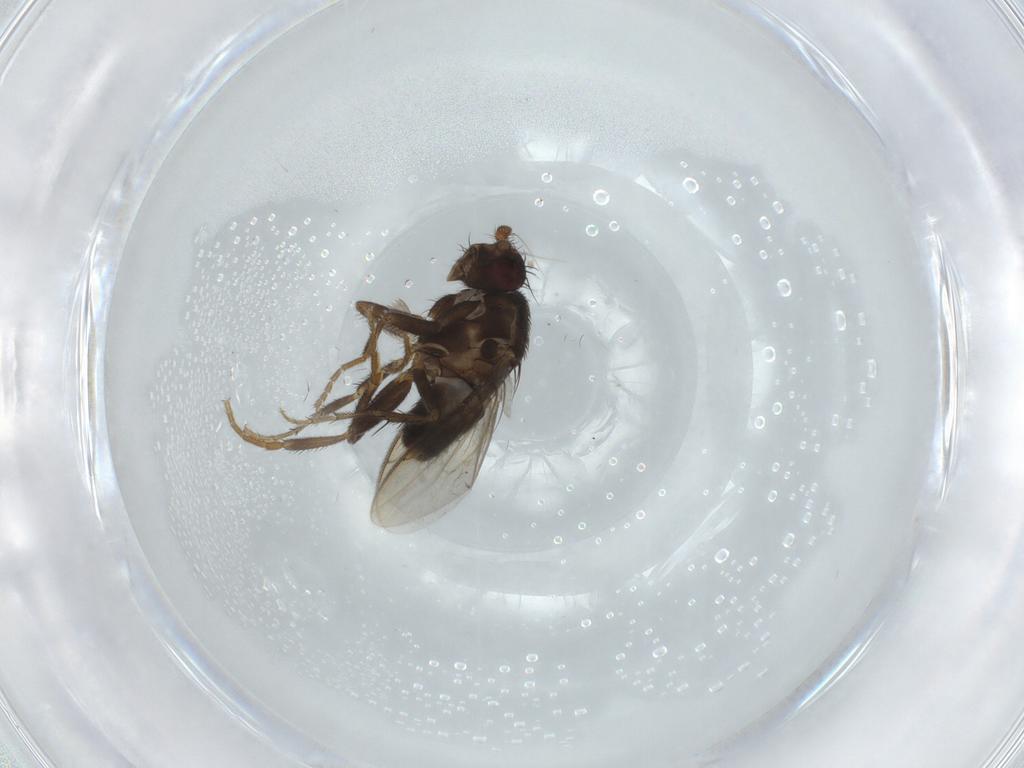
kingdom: Animalia
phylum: Arthropoda
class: Insecta
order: Diptera
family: Sphaeroceridae
